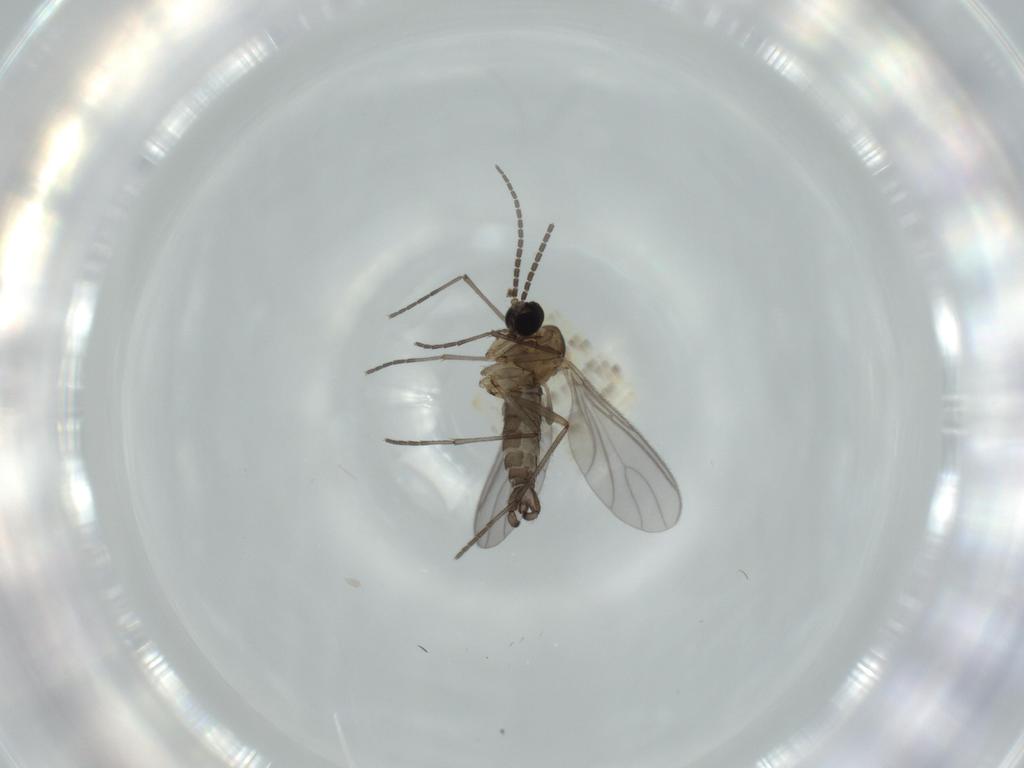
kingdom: Animalia
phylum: Arthropoda
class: Insecta
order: Diptera
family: Sciaridae
